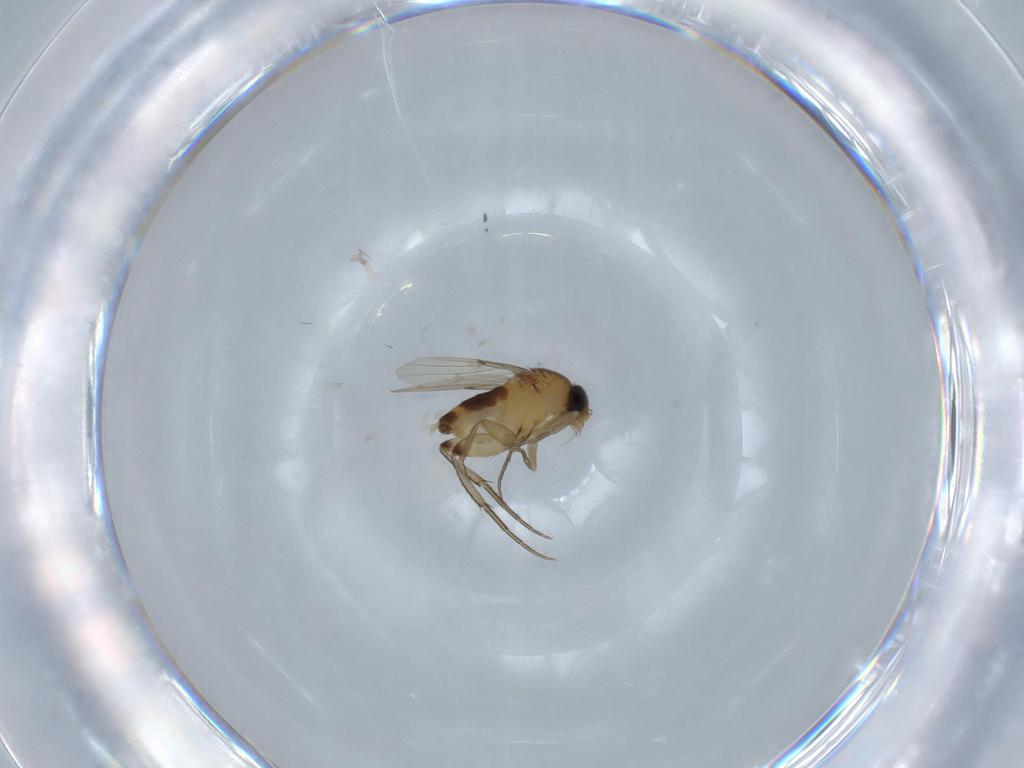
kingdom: Animalia
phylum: Arthropoda
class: Insecta
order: Diptera
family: Phoridae
